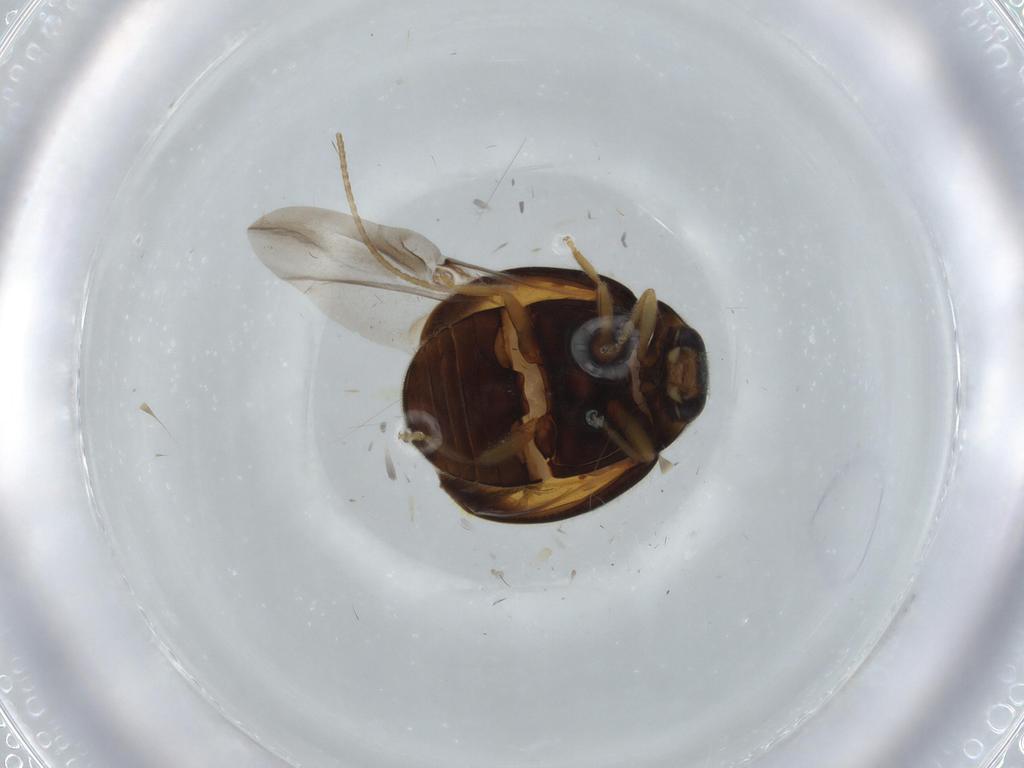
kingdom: Animalia
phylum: Arthropoda
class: Insecta
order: Coleoptera
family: Coccinellidae
